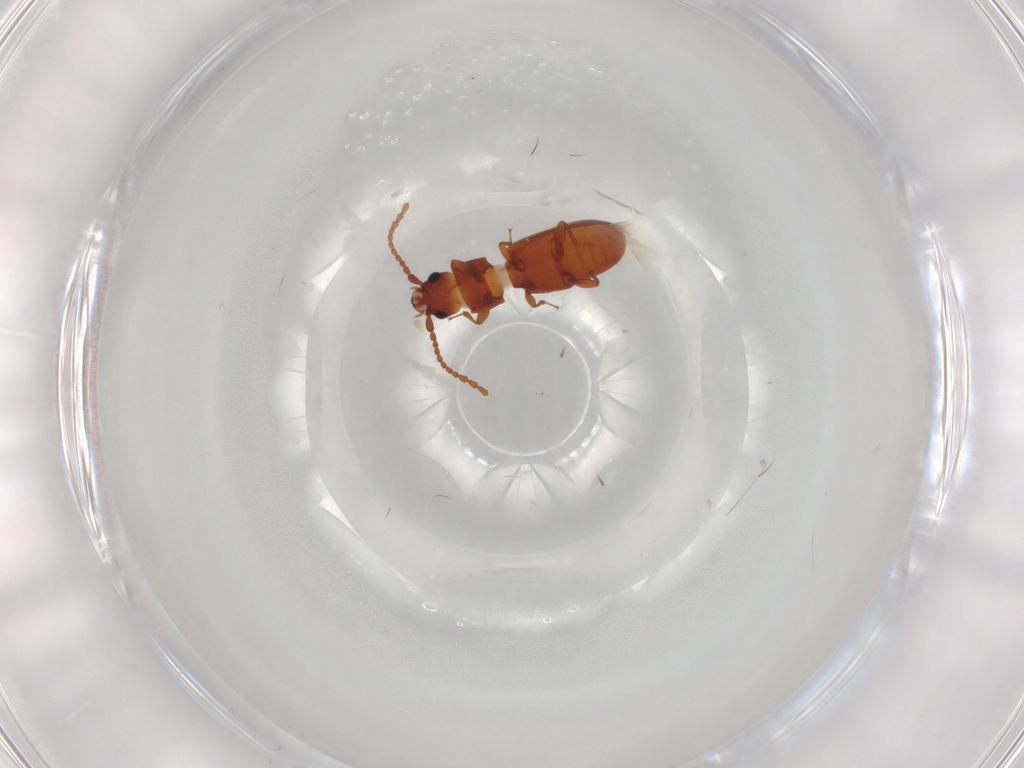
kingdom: Animalia
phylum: Arthropoda
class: Insecta
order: Coleoptera
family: Laemophloeidae
